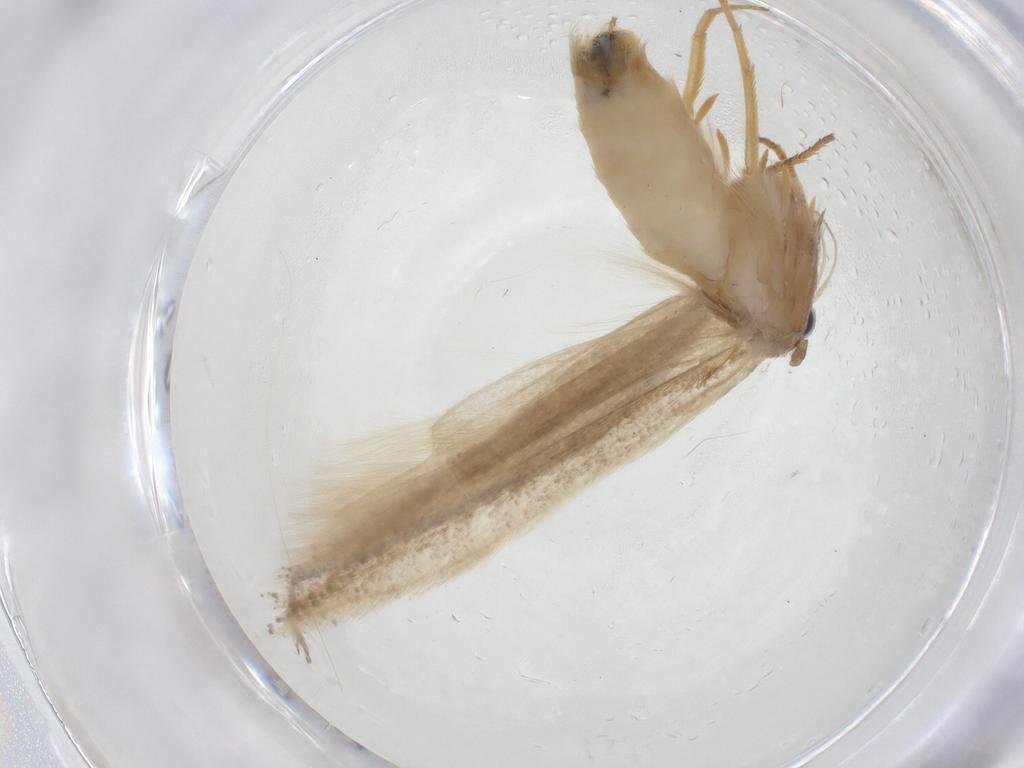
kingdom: Animalia
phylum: Arthropoda
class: Insecta
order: Lepidoptera
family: Gelechiidae
